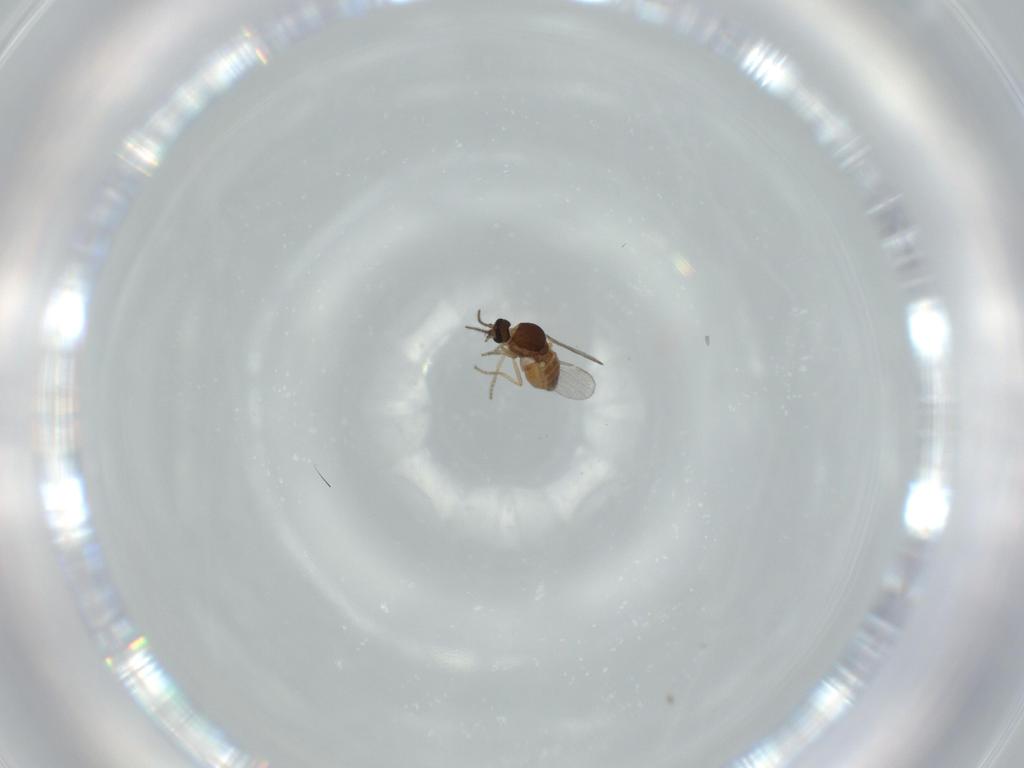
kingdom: Animalia
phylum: Arthropoda
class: Insecta
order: Diptera
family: Ceratopogonidae
